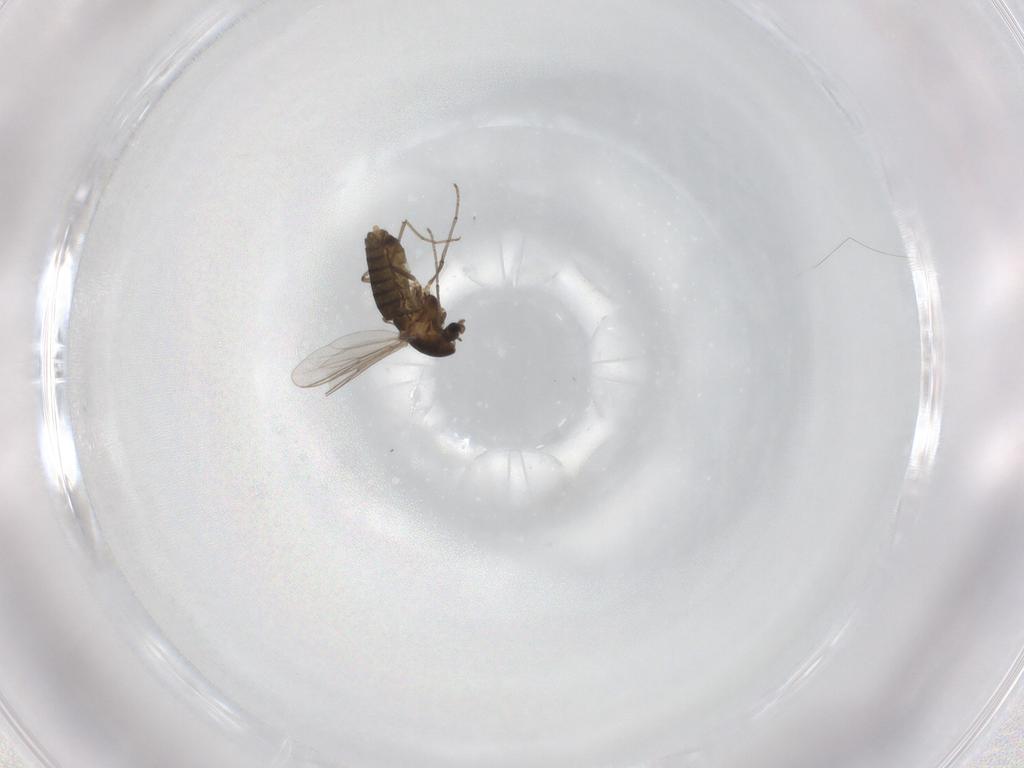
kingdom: Animalia
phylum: Arthropoda
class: Insecta
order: Diptera
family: Chironomidae
